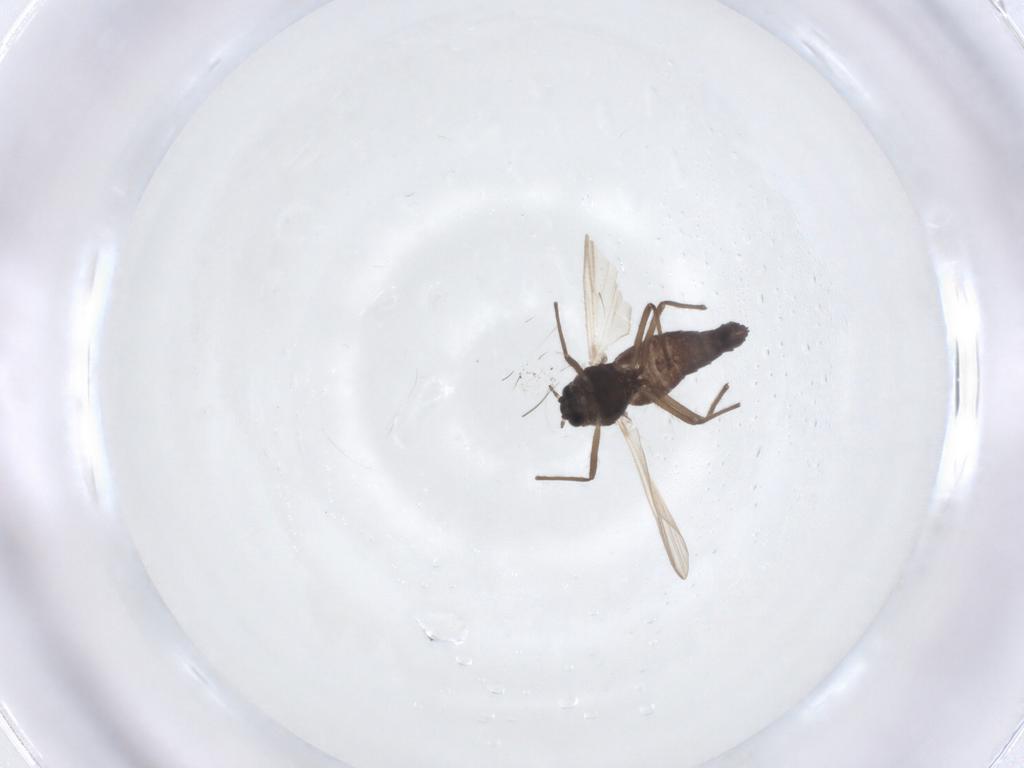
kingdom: Animalia
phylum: Arthropoda
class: Insecta
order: Diptera
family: Chironomidae
